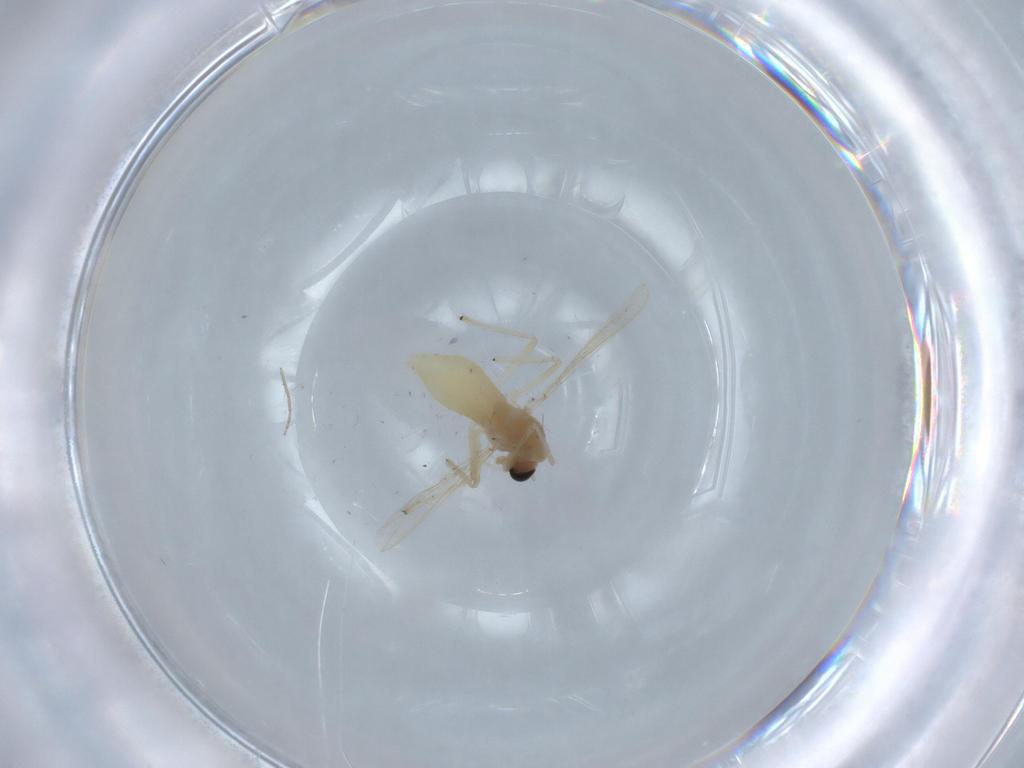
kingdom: Animalia
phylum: Arthropoda
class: Insecta
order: Diptera
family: Chironomidae
